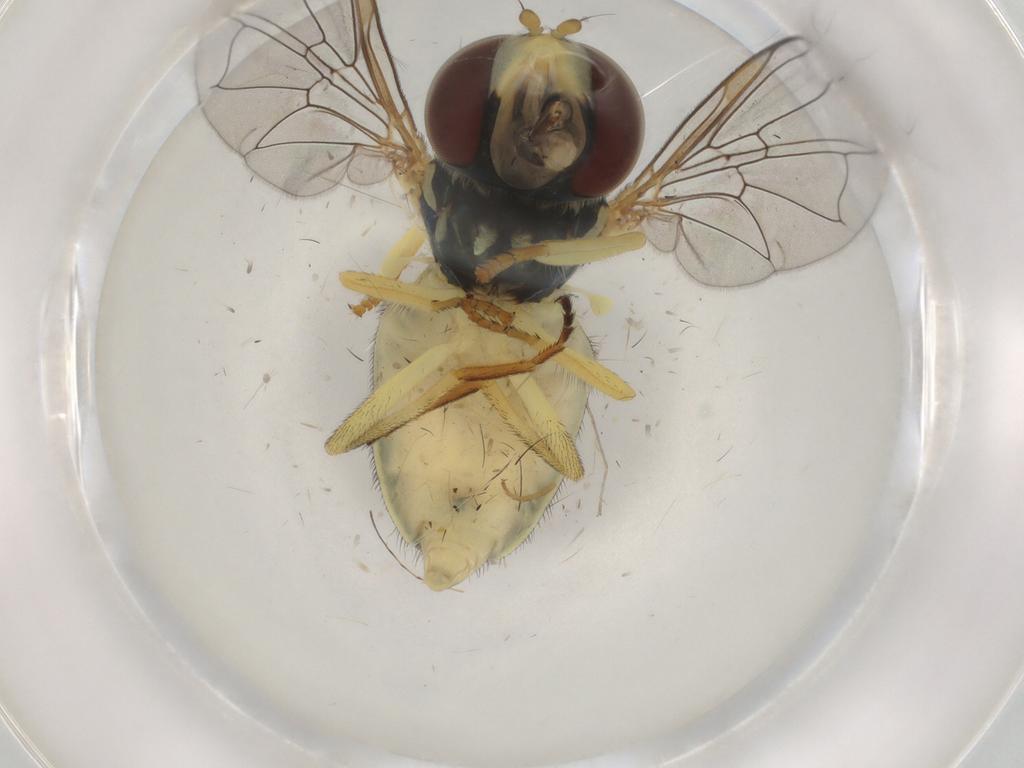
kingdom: Animalia
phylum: Arthropoda
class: Insecta
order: Diptera
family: Syrphidae
